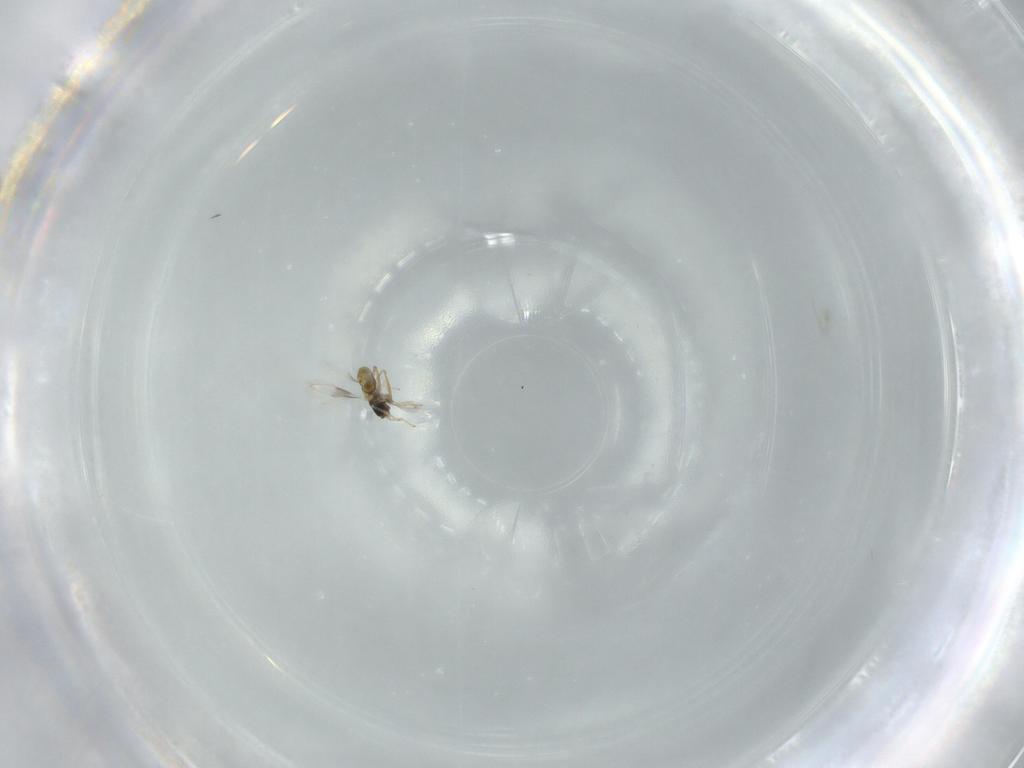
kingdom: Animalia
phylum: Arthropoda
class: Insecta
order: Hymenoptera
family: Aphelinidae
